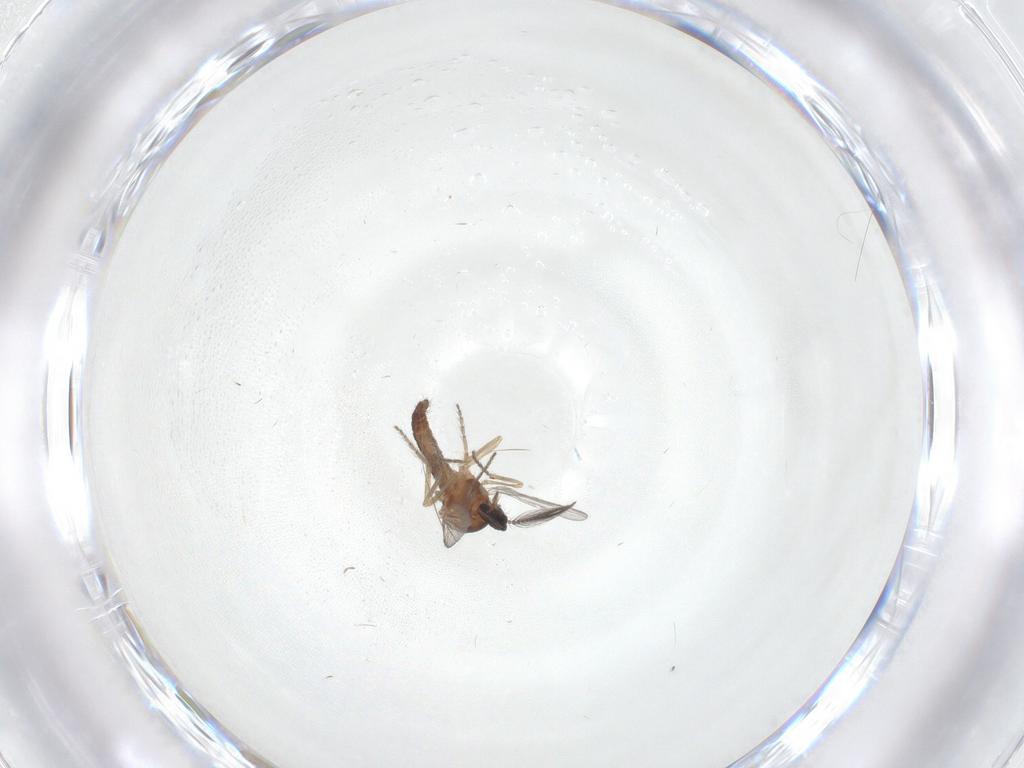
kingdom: Animalia
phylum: Arthropoda
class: Insecta
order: Diptera
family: Ceratopogonidae
